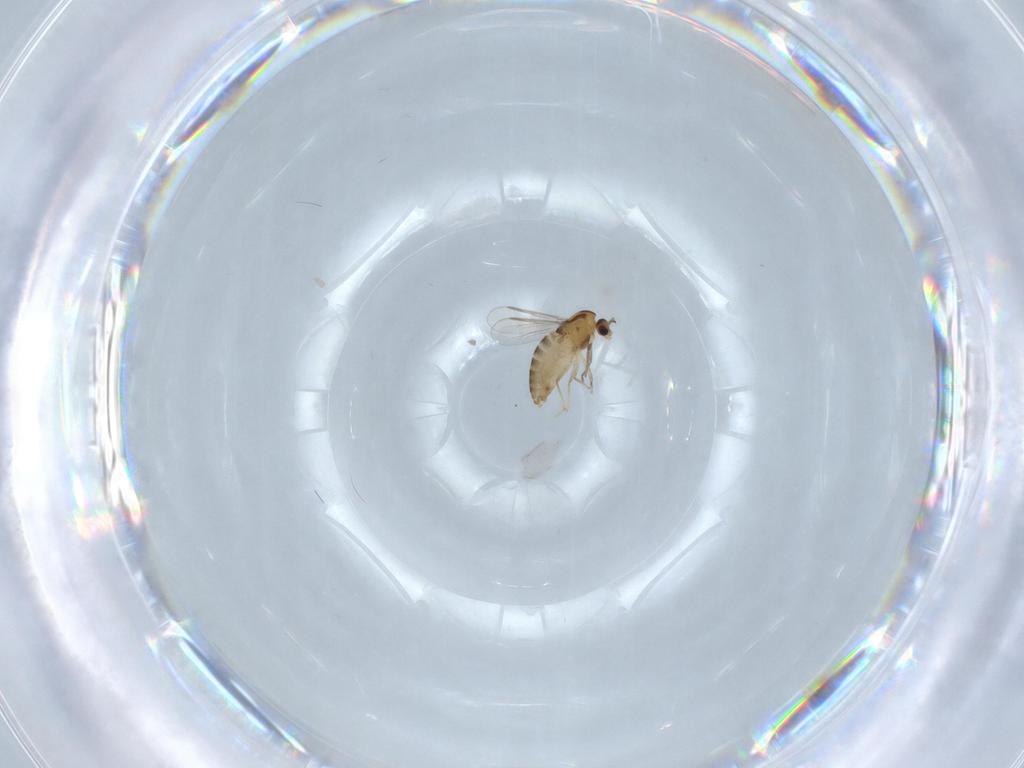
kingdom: Animalia
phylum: Arthropoda
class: Insecta
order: Diptera
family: Chironomidae
